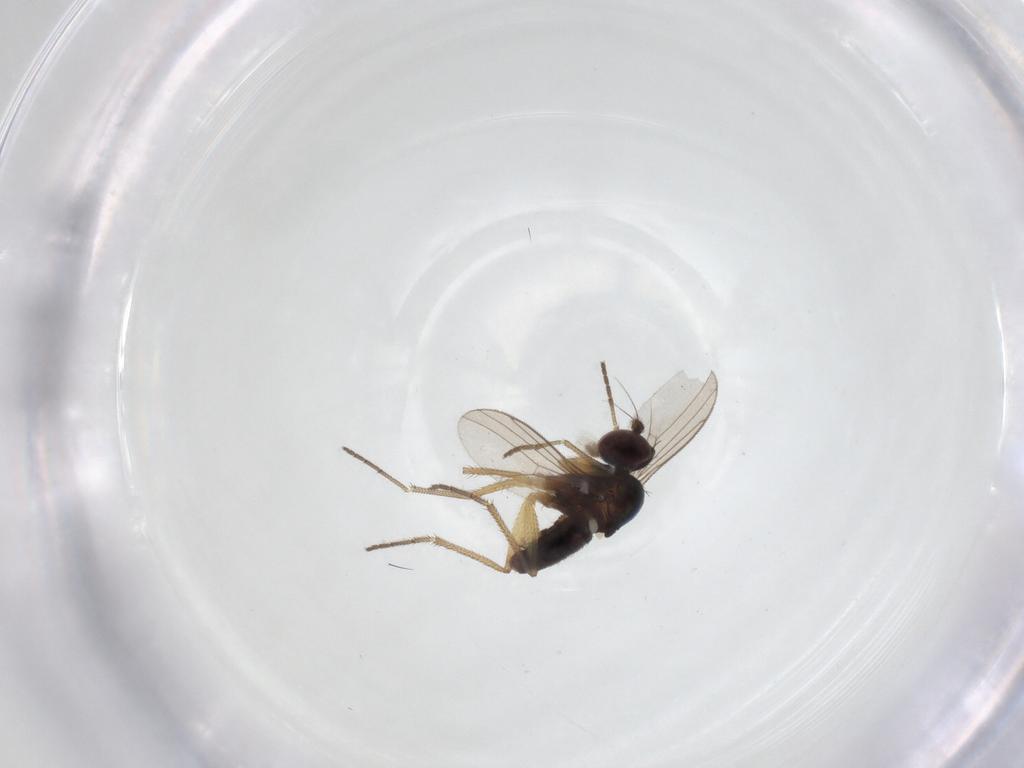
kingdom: Animalia
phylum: Arthropoda
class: Insecta
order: Diptera
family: Dolichopodidae
